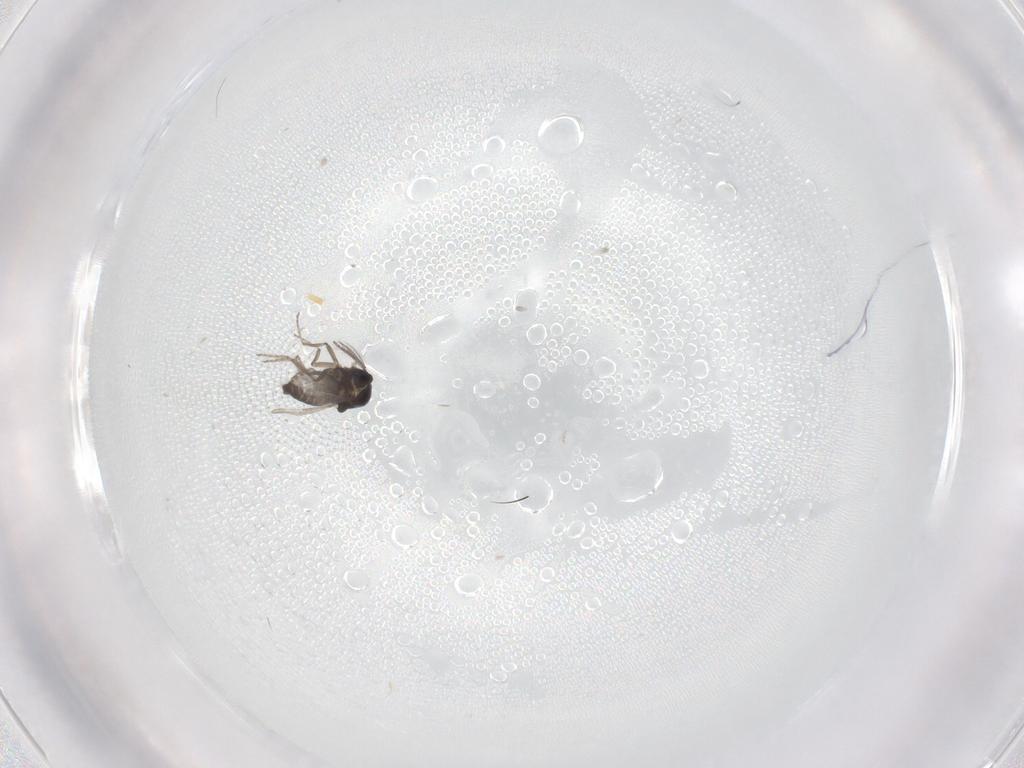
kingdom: Animalia
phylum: Arthropoda
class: Insecta
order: Diptera
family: Ceratopogonidae
